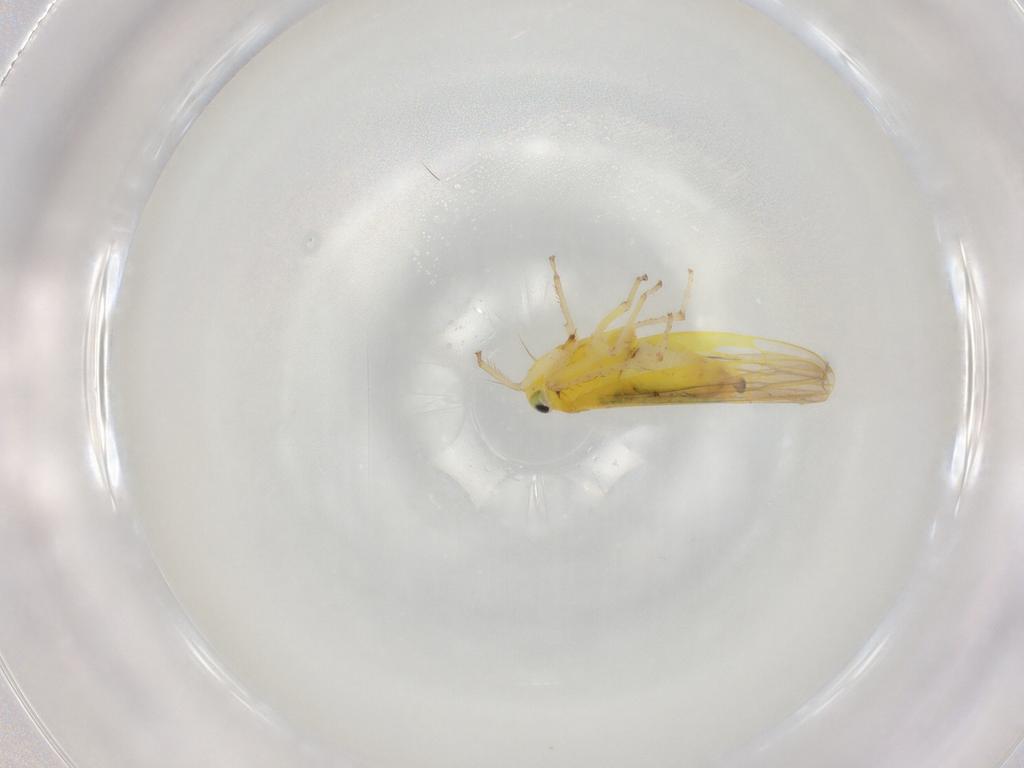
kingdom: Animalia
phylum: Arthropoda
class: Insecta
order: Hemiptera
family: Cicadellidae
